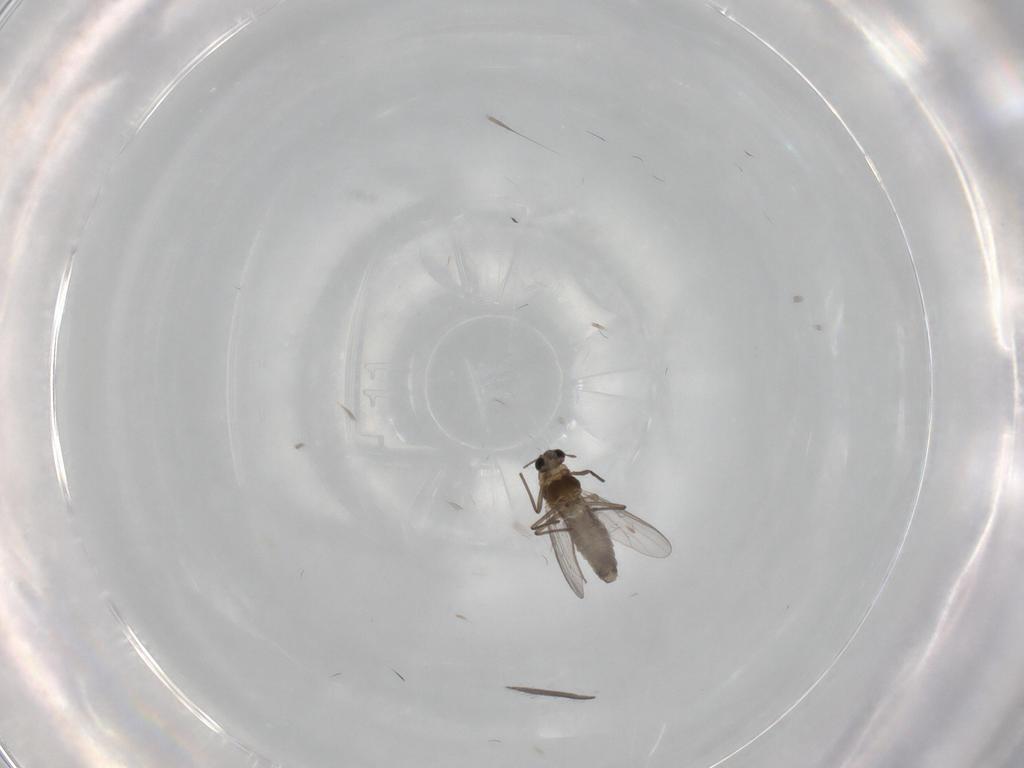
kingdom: Animalia
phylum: Arthropoda
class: Insecta
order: Diptera
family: Chironomidae
